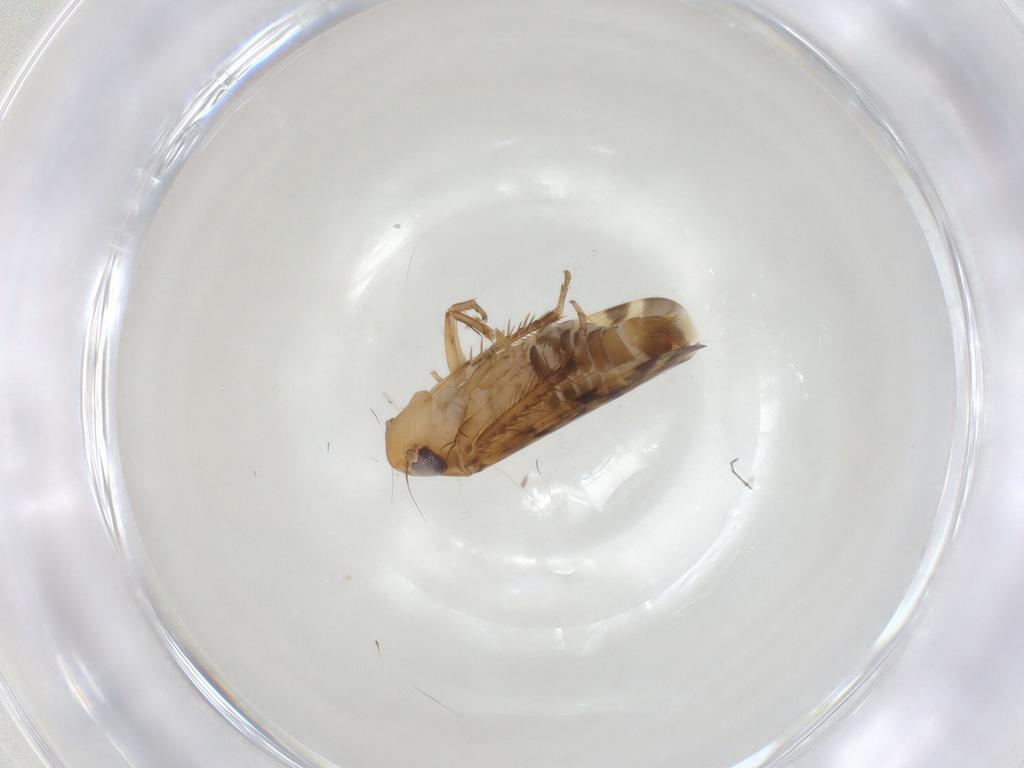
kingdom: Animalia
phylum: Arthropoda
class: Insecta
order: Hemiptera
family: Cicadellidae
